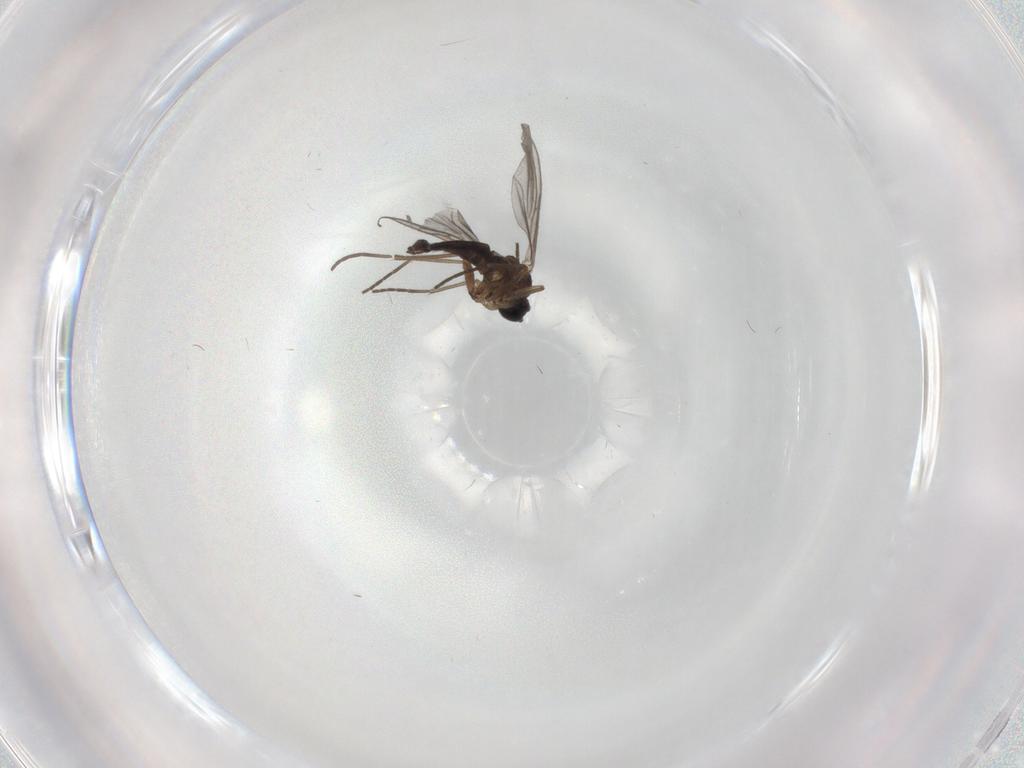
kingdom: Animalia
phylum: Arthropoda
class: Insecta
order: Diptera
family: Sciaridae
